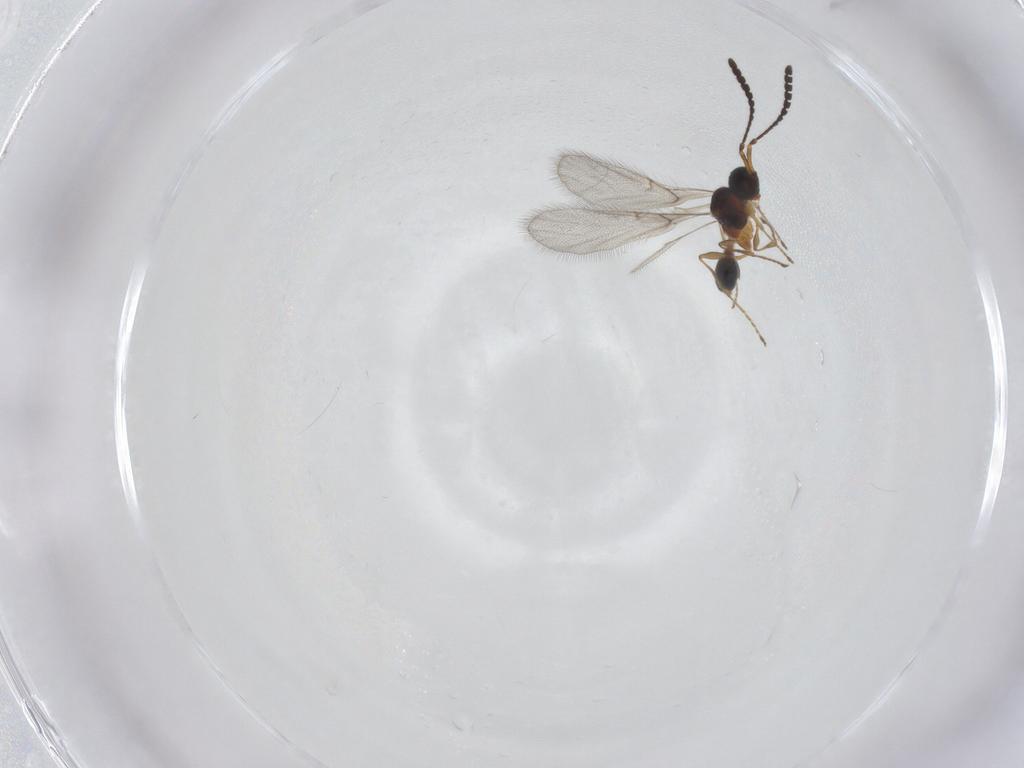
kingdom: Animalia
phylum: Arthropoda
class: Insecta
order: Hymenoptera
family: Diapriidae
